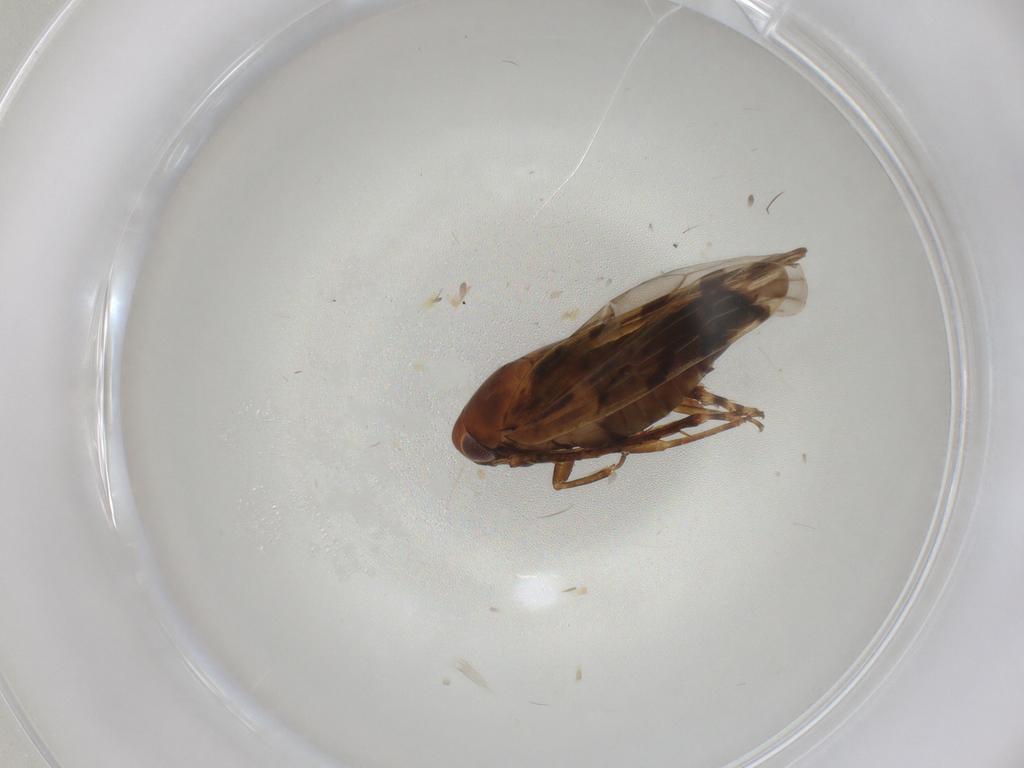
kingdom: Animalia
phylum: Arthropoda
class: Insecta
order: Hemiptera
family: Cicadellidae
